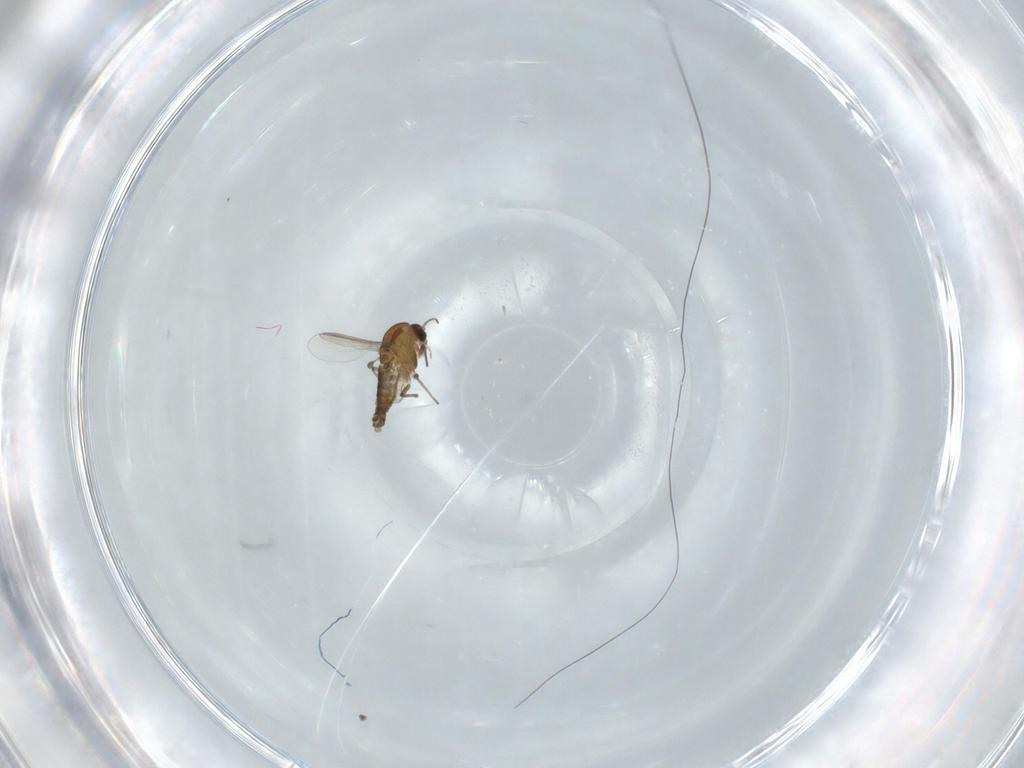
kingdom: Animalia
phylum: Arthropoda
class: Insecta
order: Diptera
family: Chironomidae
